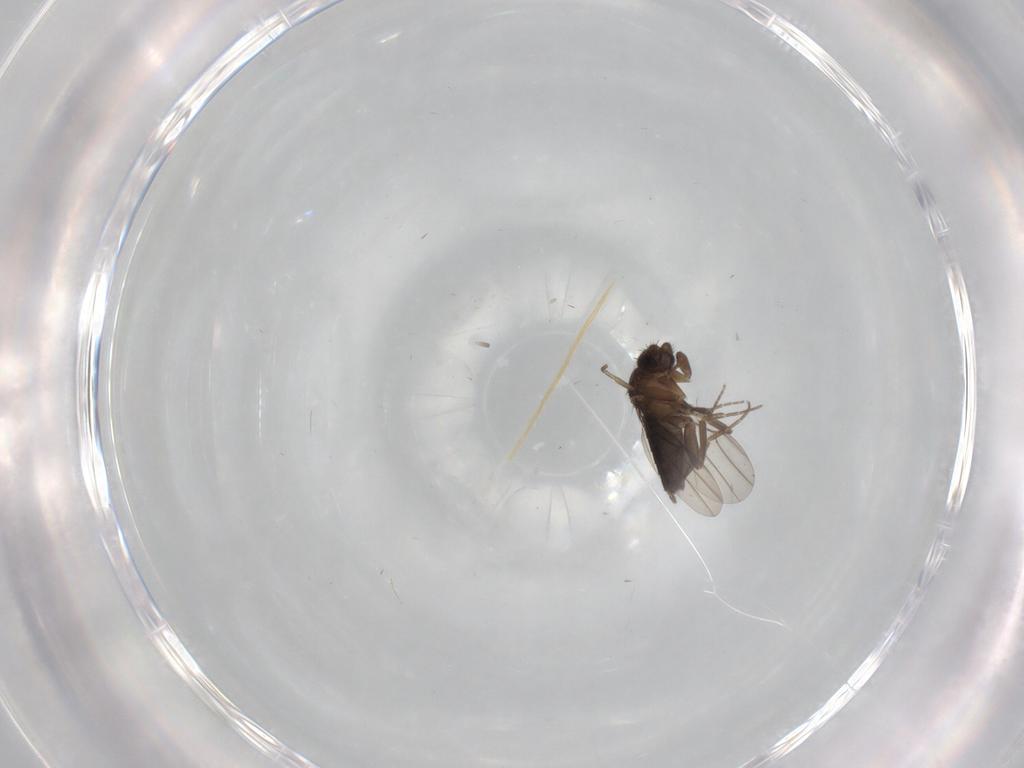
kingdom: Animalia
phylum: Arthropoda
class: Insecta
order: Diptera
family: Phoridae
